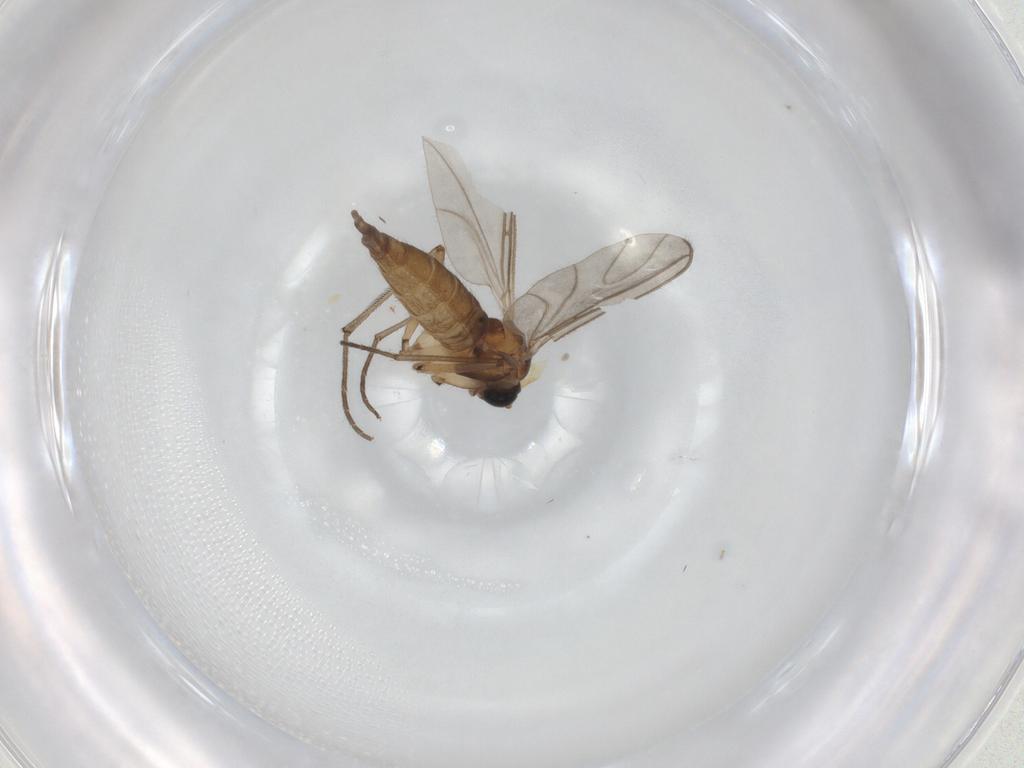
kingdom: Animalia
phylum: Arthropoda
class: Insecta
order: Diptera
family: Sciaridae
